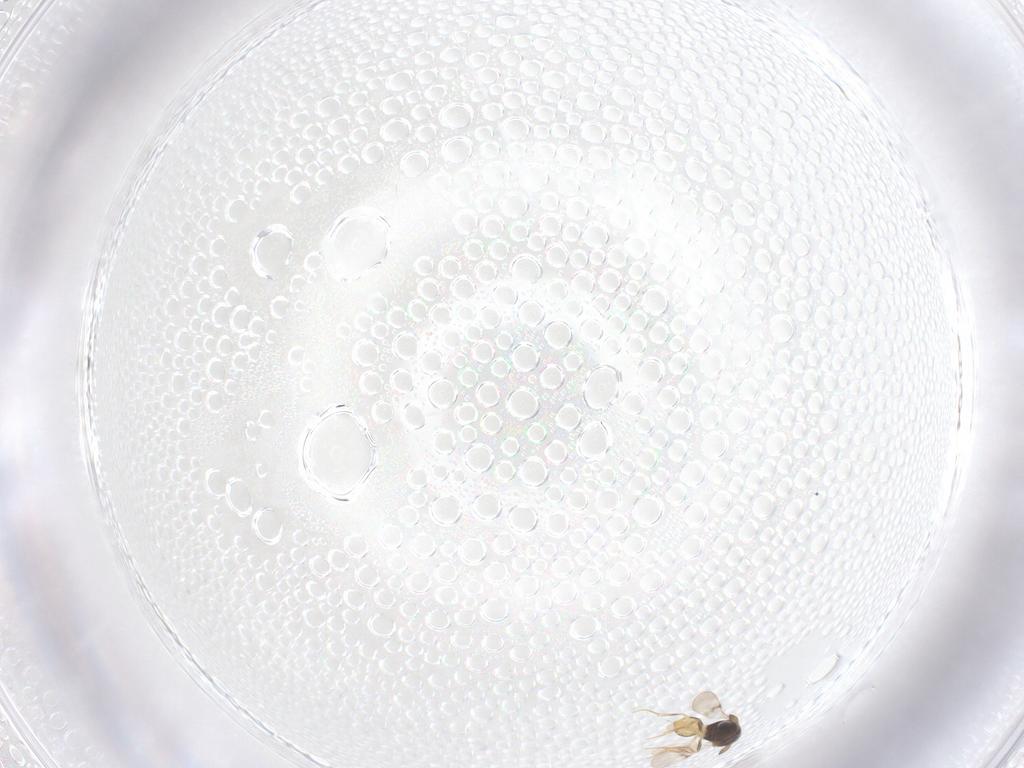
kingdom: Animalia
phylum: Arthropoda
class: Insecta
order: Hymenoptera
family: Scelionidae
